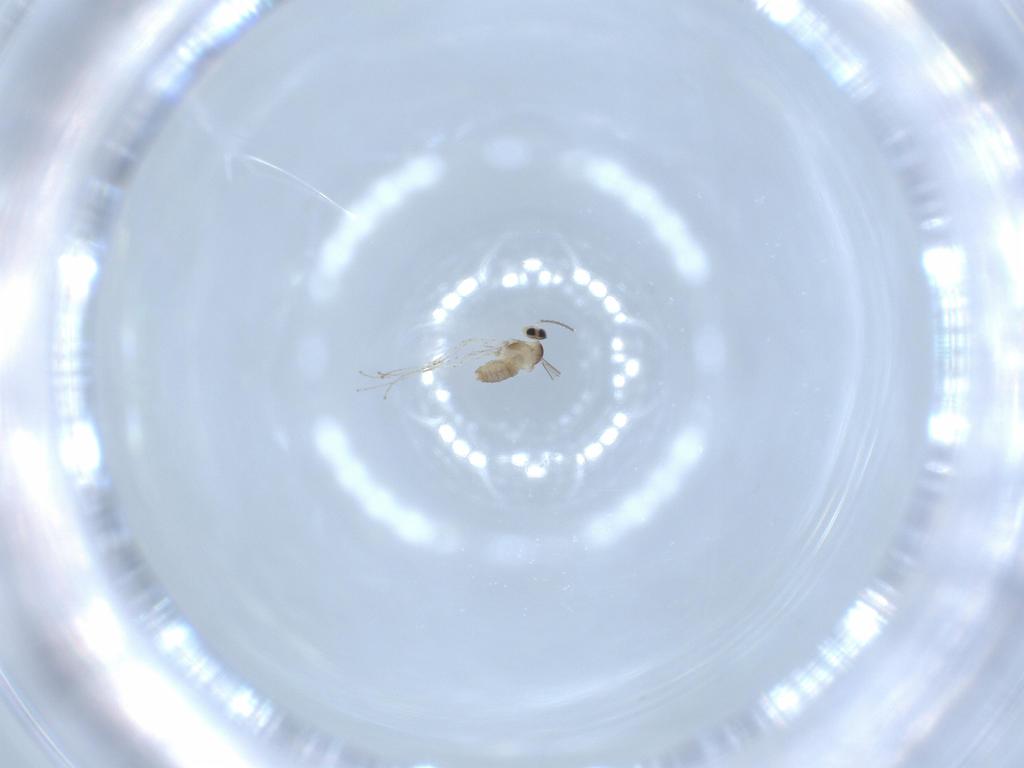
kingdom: Animalia
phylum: Arthropoda
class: Insecta
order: Diptera
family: Cecidomyiidae
